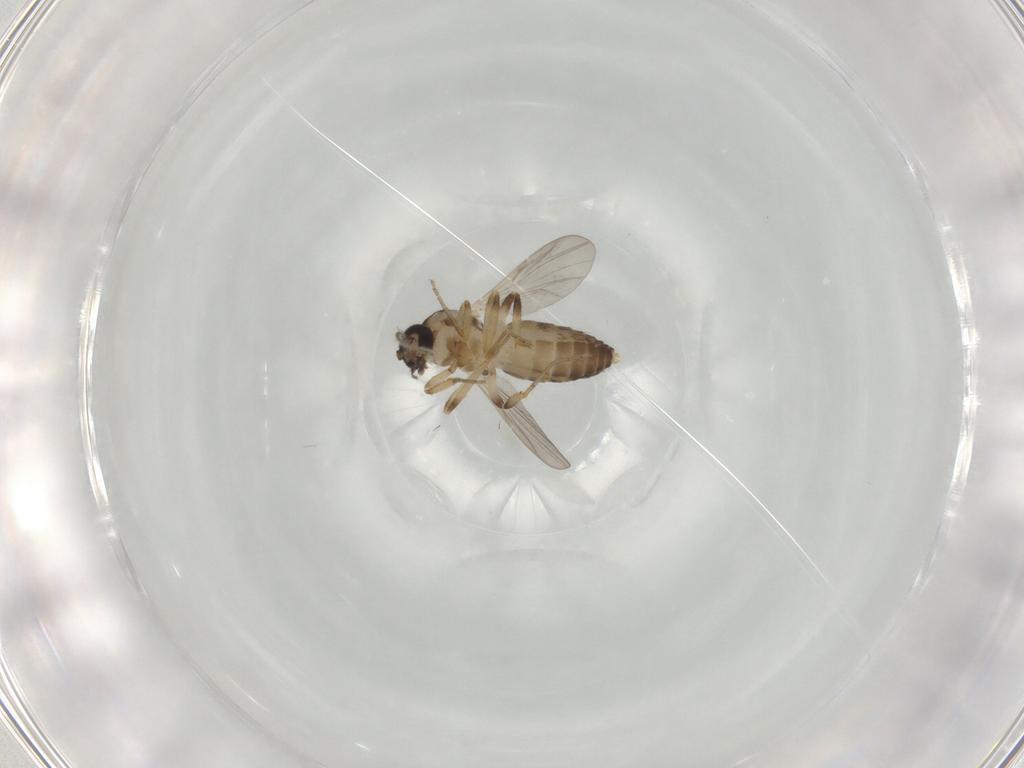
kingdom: Animalia
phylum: Arthropoda
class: Insecta
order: Diptera
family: Ceratopogonidae
